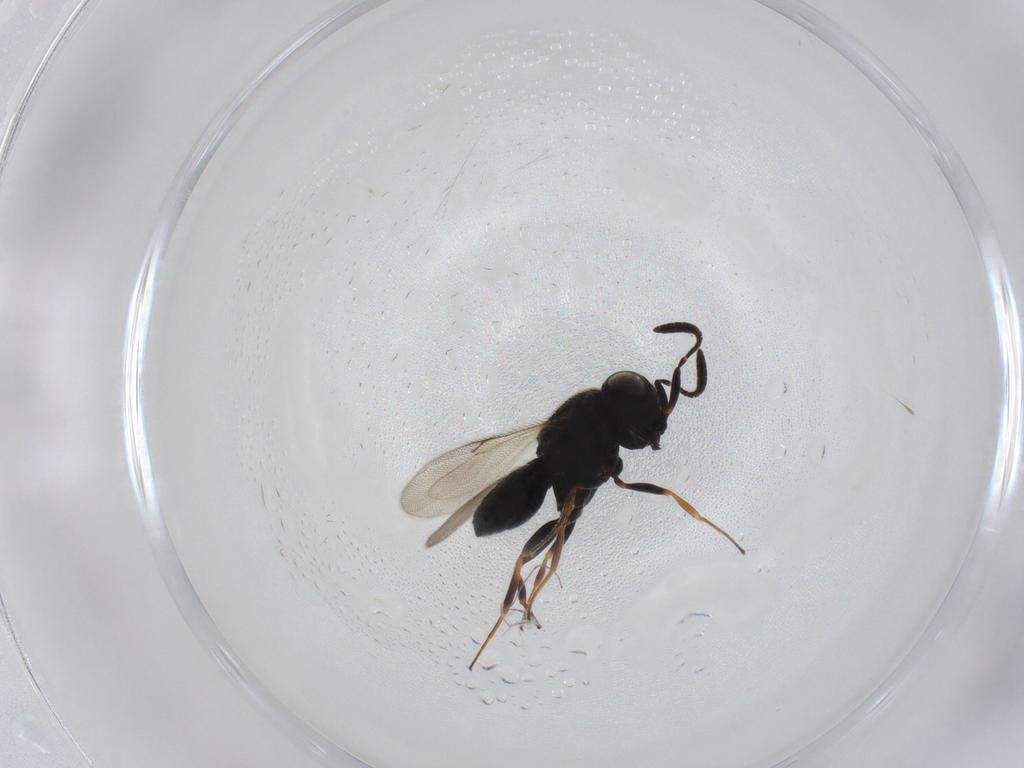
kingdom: Animalia
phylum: Arthropoda
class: Insecta
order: Hymenoptera
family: Scelionidae
